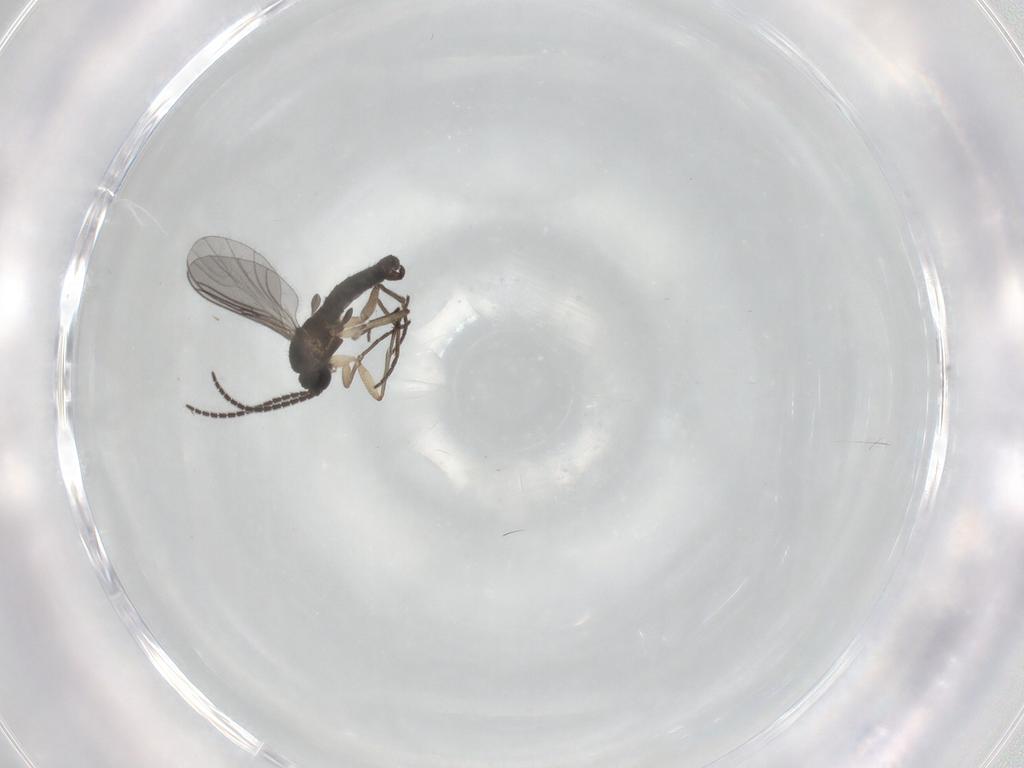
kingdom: Animalia
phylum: Arthropoda
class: Insecta
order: Diptera
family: Sciaridae
